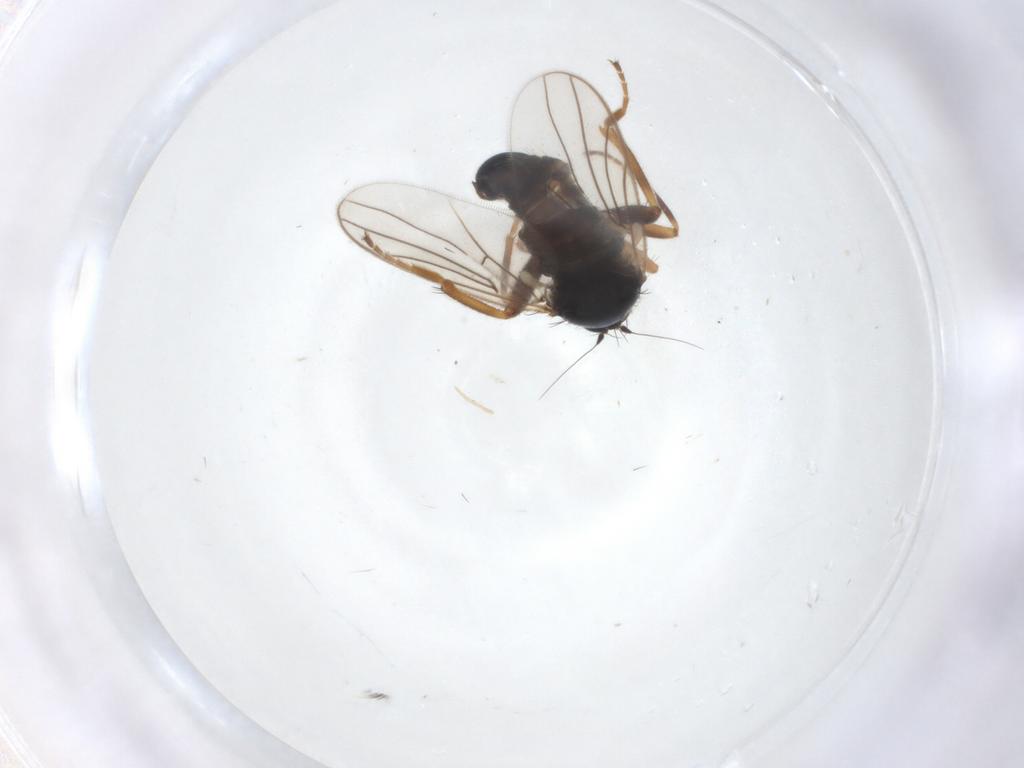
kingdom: Animalia
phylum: Arthropoda
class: Insecta
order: Diptera
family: Hybotidae
